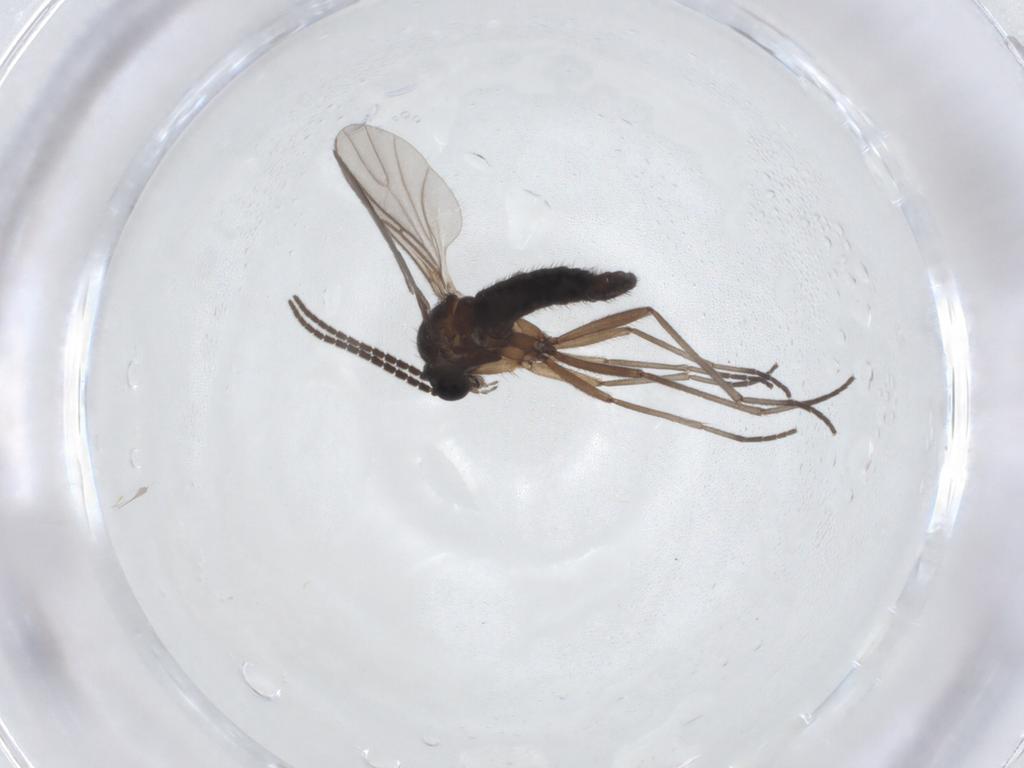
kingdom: Animalia
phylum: Arthropoda
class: Insecta
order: Diptera
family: Sciaridae
